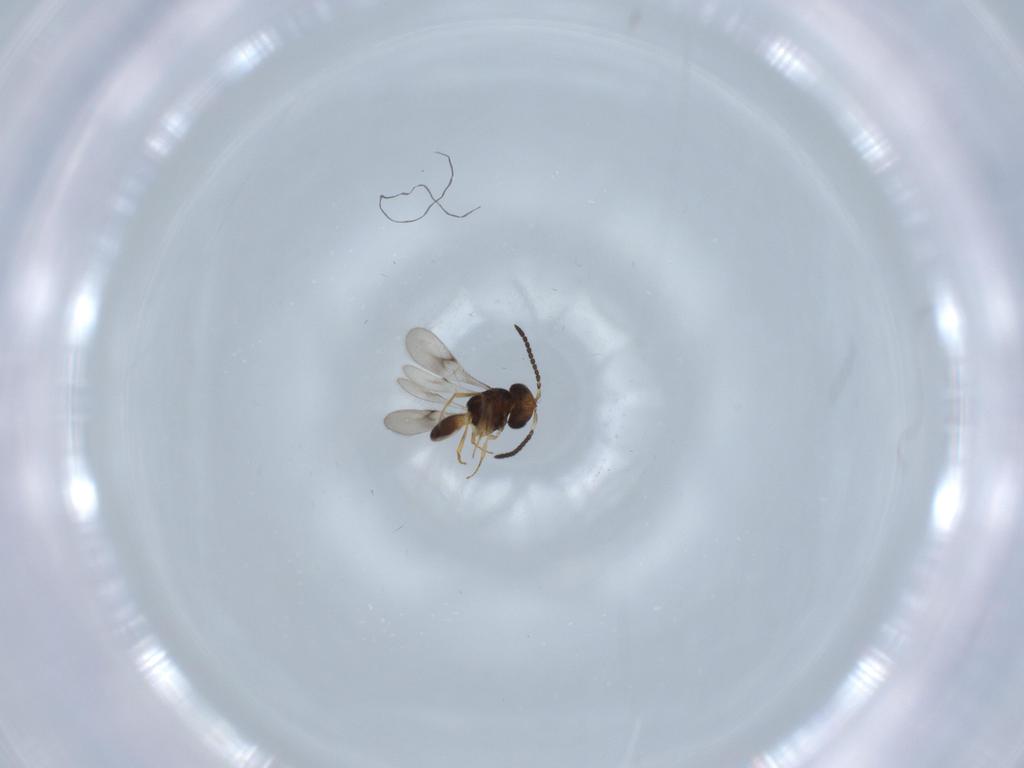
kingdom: Animalia
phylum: Arthropoda
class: Arachnida
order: Araneae
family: Pholcidae
